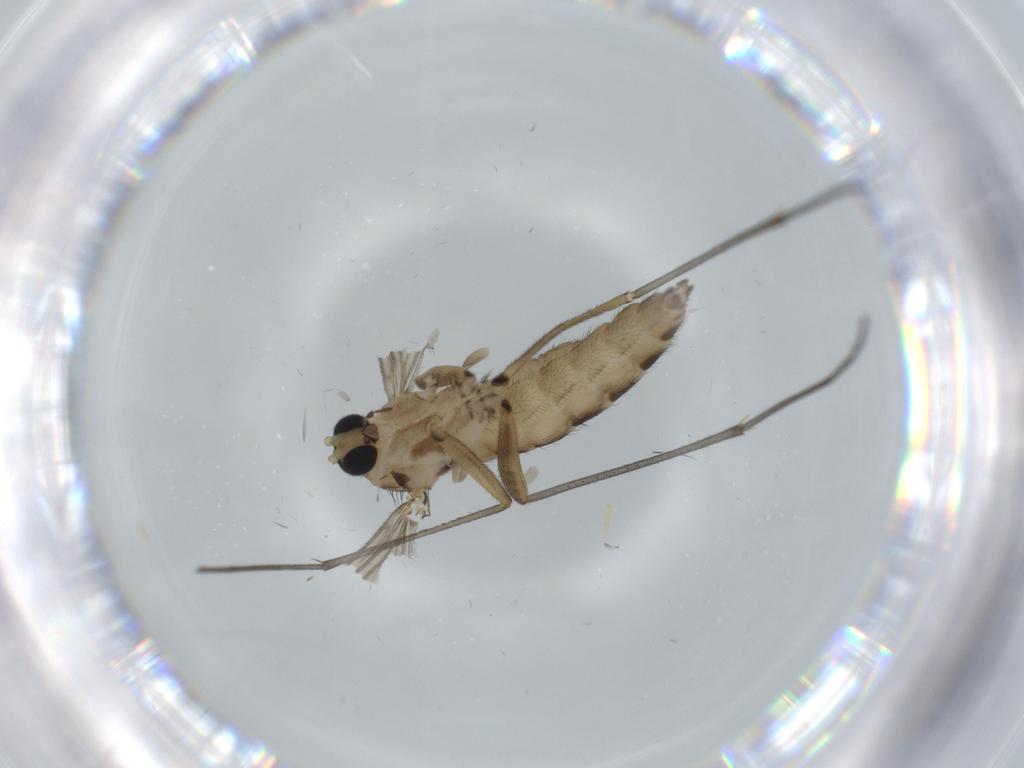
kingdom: Animalia
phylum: Arthropoda
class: Insecta
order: Diptera
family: Sciaridae
